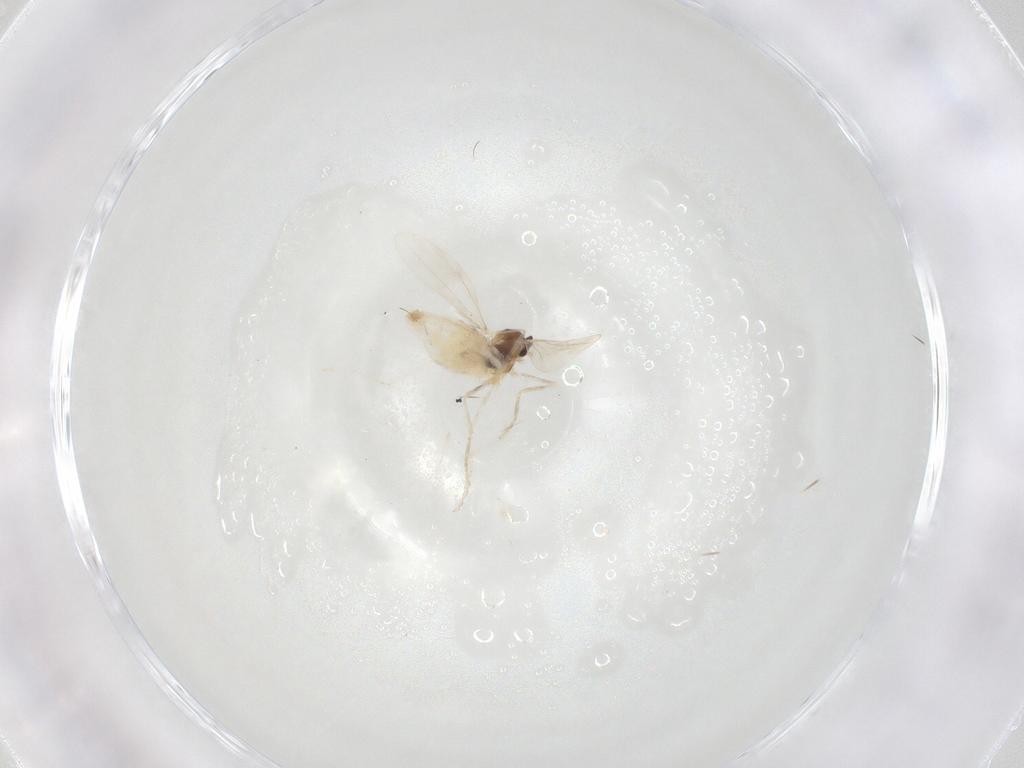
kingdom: Animalia
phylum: Arthropoda
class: Insecta
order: Diptera
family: Cecidomyiidae
